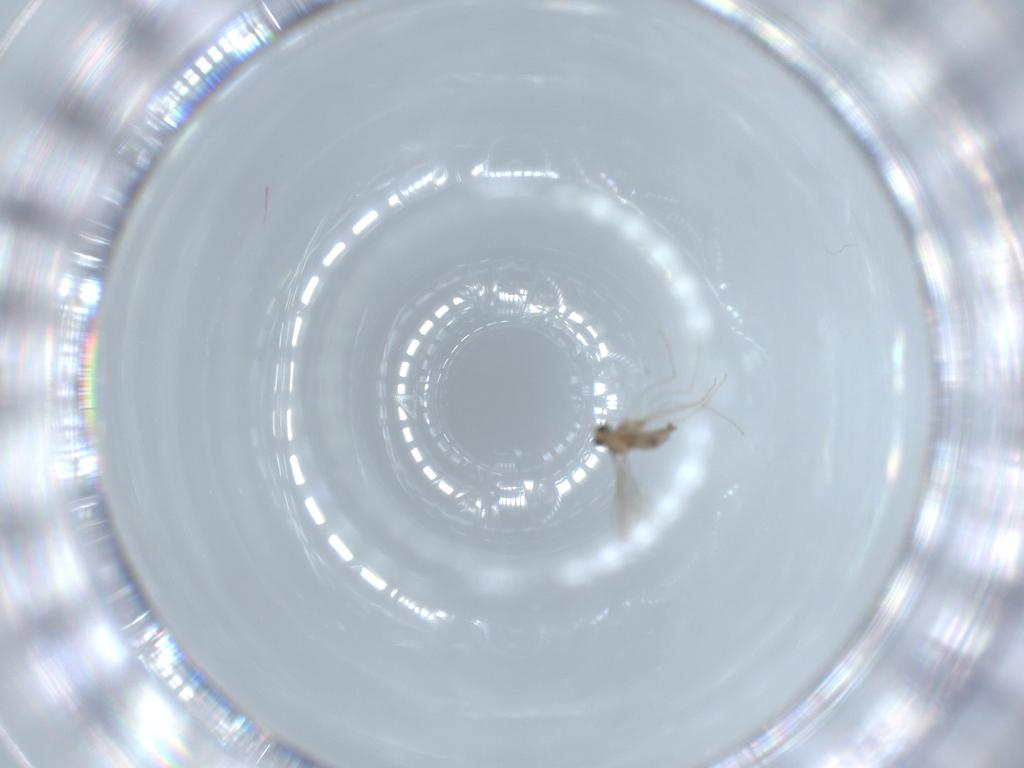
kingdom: Animalia
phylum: Arthropoda
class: Insecta
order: Diptera
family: Cecidomyiidae
